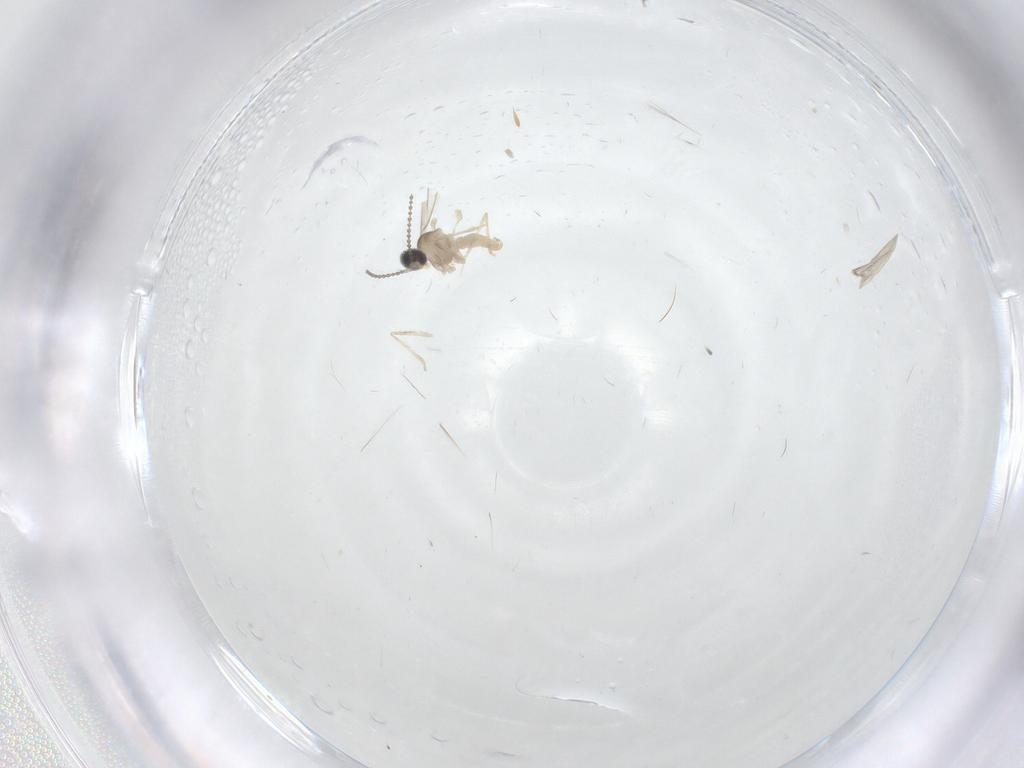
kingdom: Animalia
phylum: Arthropoda
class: Insecta
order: Diptera
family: Cecidomyiidae
